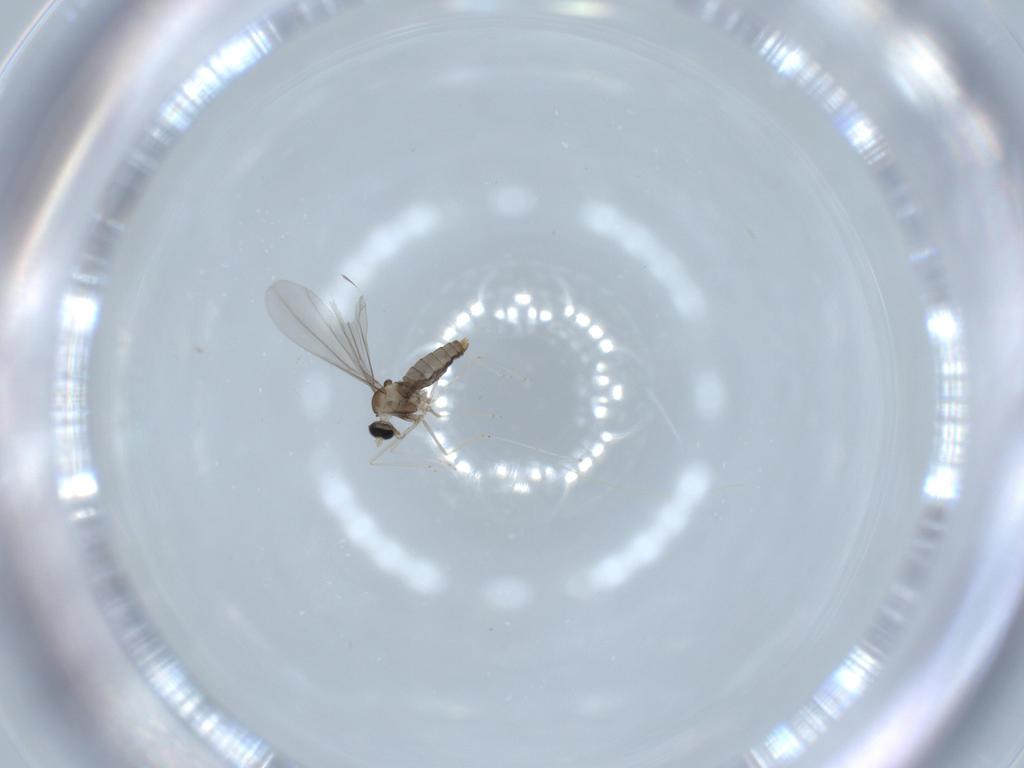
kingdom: Animalia
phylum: Arthropoda
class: Insecta
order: Diptera
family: Cecidomyiidae
